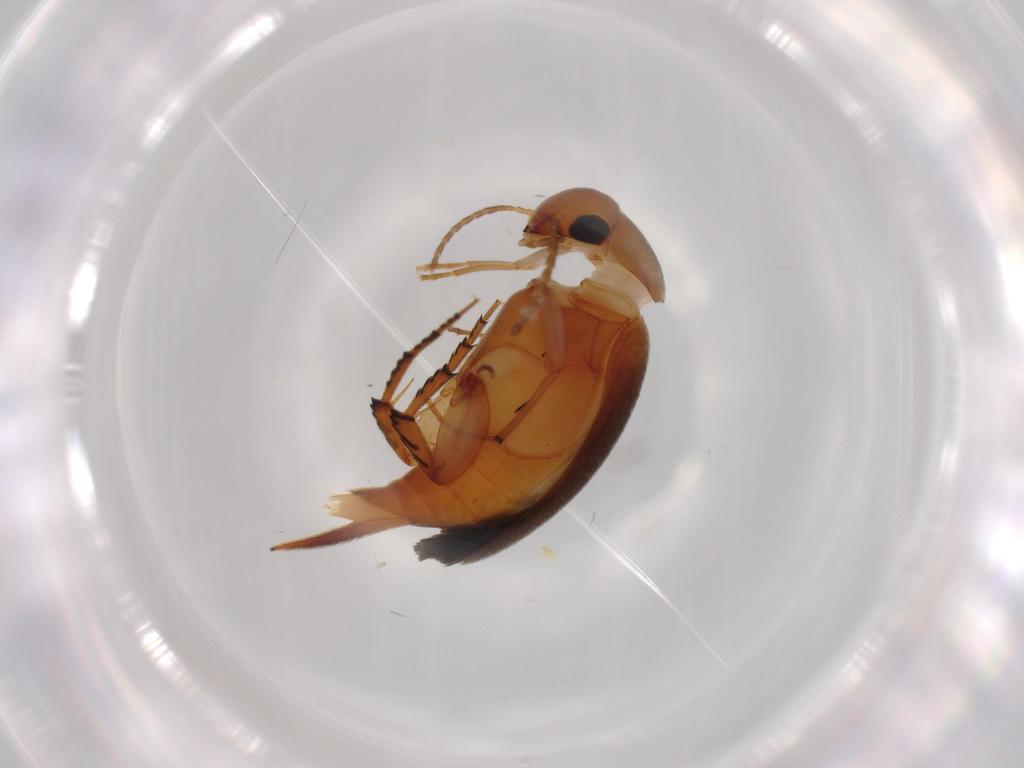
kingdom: Animalia
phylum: Arthropoda
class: Insecta
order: Coleoptera
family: Mordellidae
